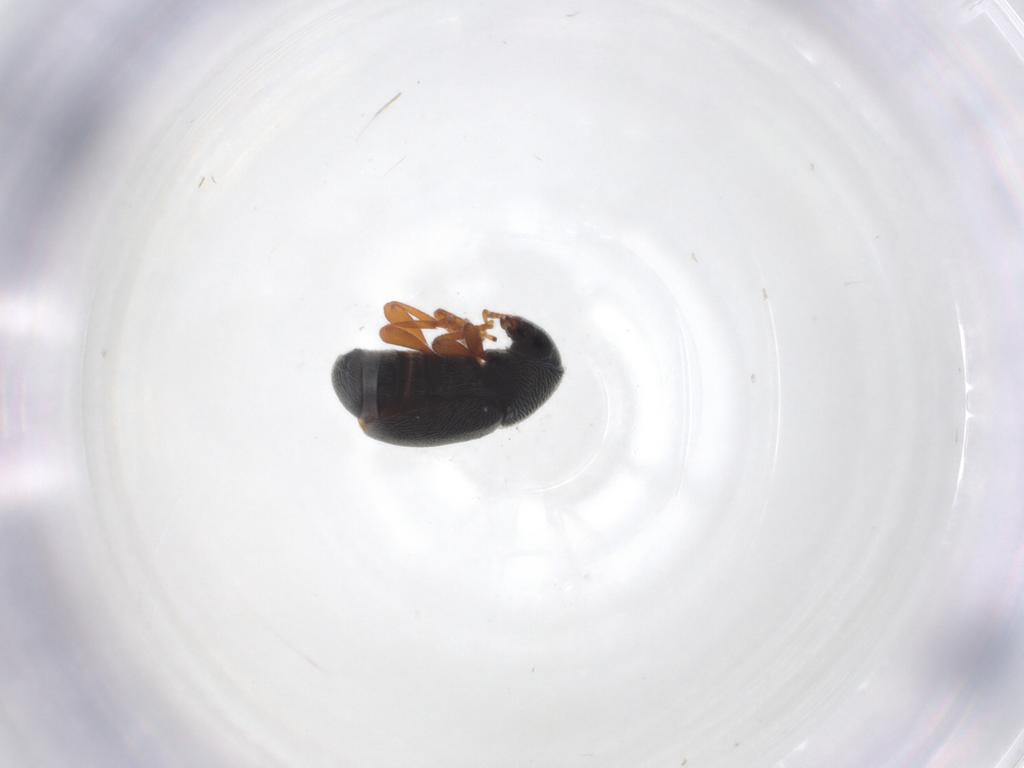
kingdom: Animalia
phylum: Arthropoda
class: Insecta
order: Coleoptera
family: Anthribidae
